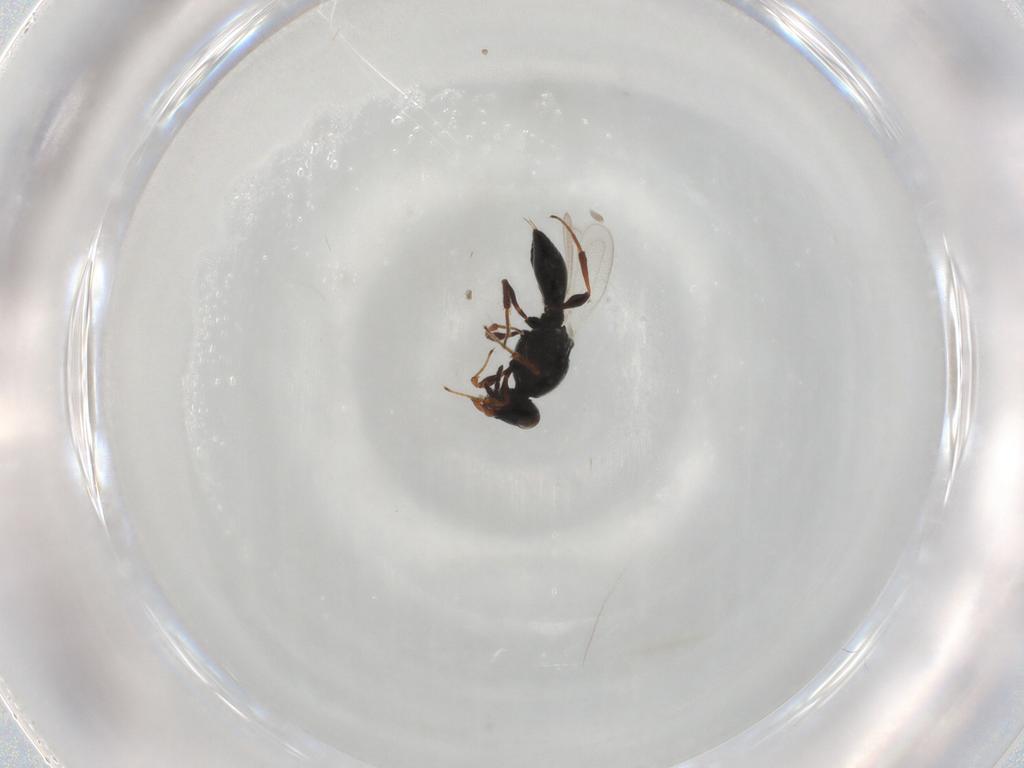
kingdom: Animalia
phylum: Arthropoda
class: Insecta
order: Hymenoptera
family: Platygastridae
